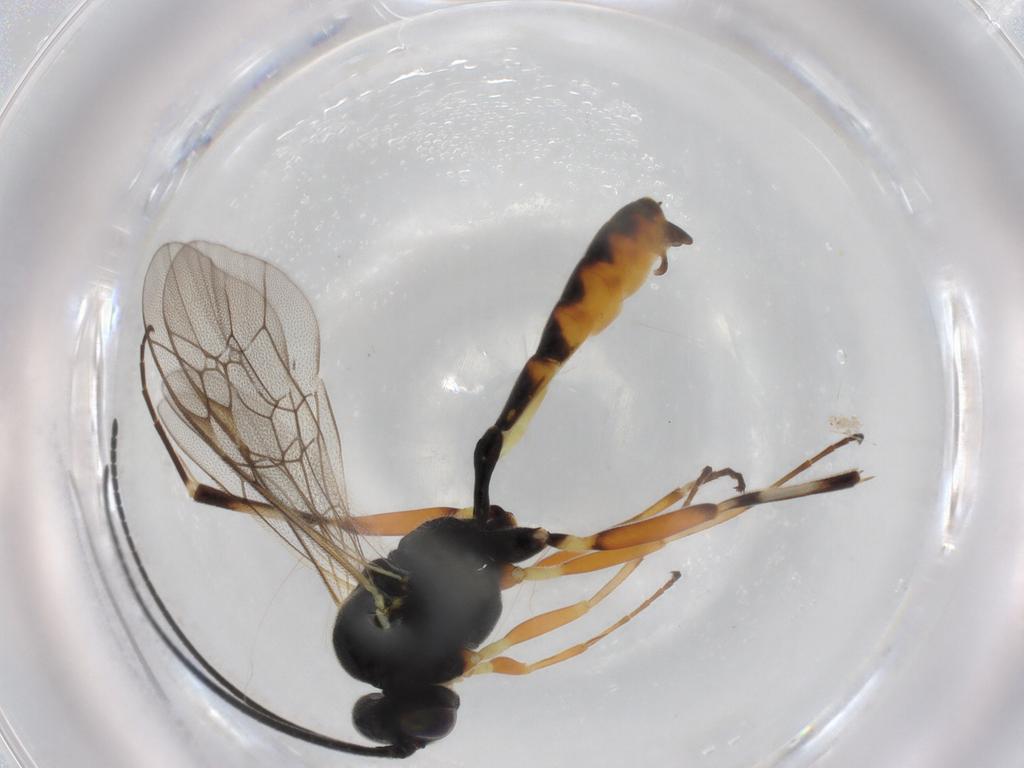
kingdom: Animalia
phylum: Arthropoda
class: Insecta
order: Hymenoptera
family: Ichneumonidae
